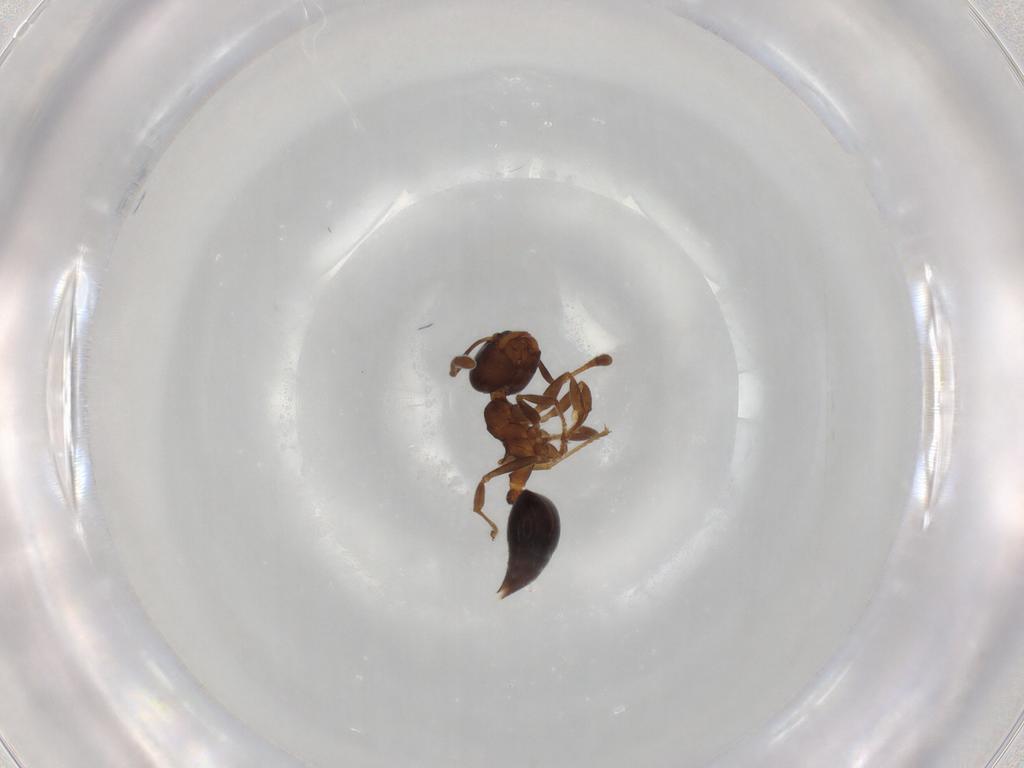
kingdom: Animalia
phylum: Arthropoda
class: Insecta
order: Hymenoptera
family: Formicidae
